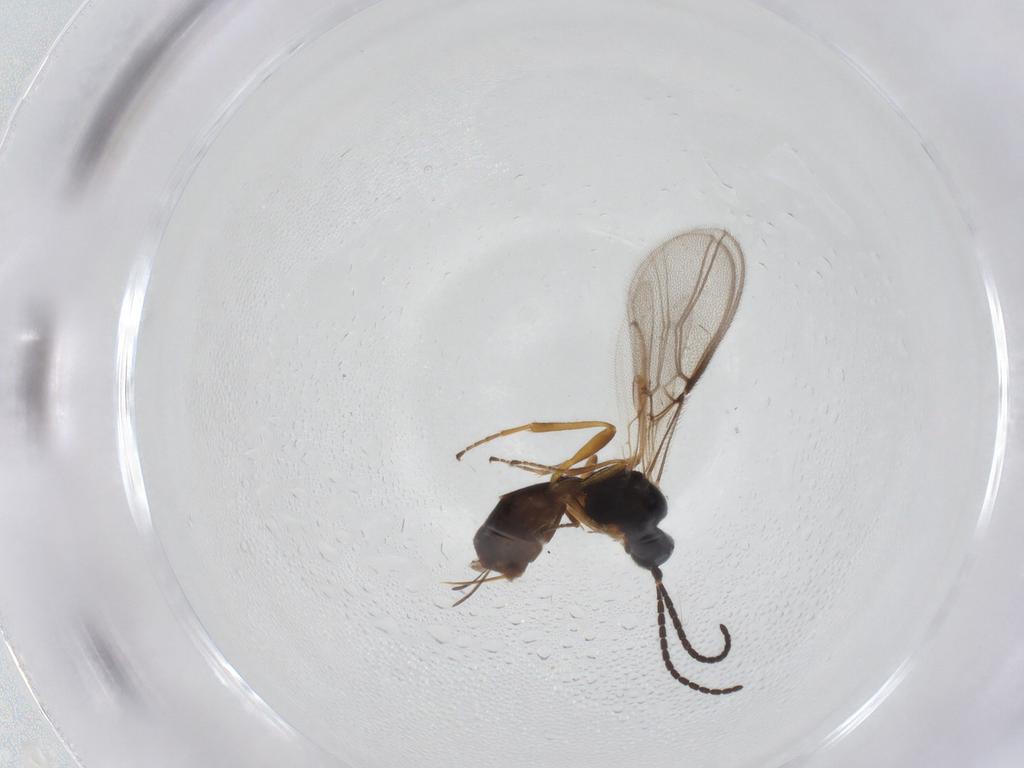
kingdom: Animalia
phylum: Arthropoda
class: Insecta
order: Hymenoptera
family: Braconidae
